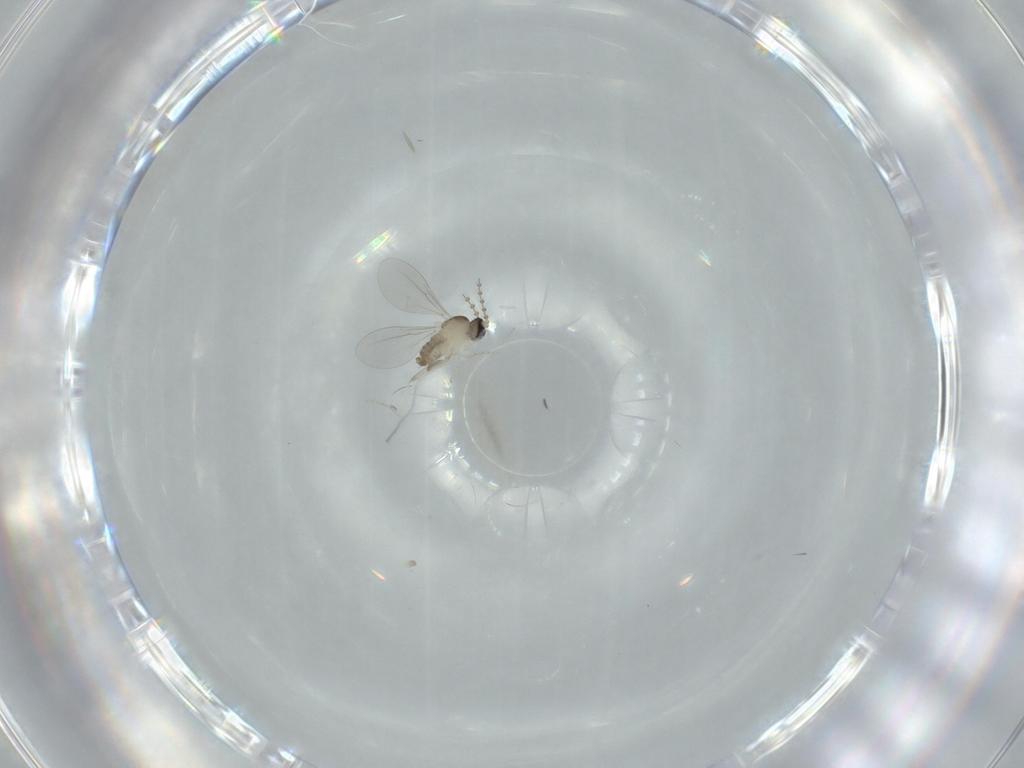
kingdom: Animalia
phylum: Arthropoda
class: Insecta
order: Diptera
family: Cecidomyiidae
